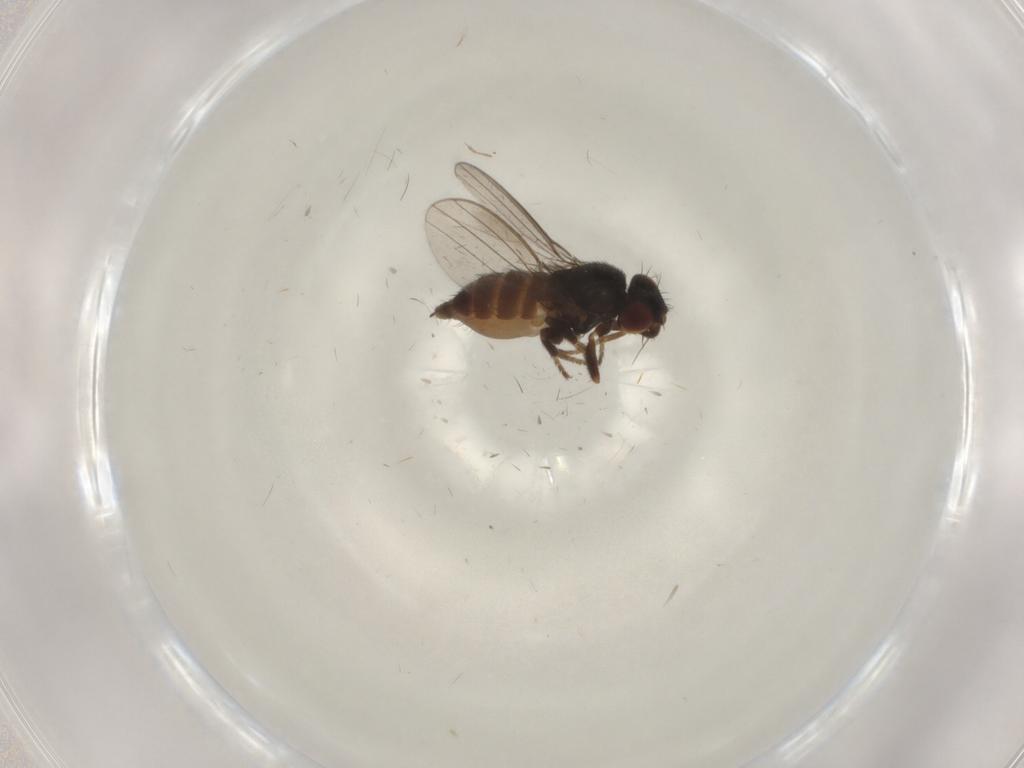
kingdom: Animalia
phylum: Arthropoda
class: Insecta
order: Diptera
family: Milichiidae
